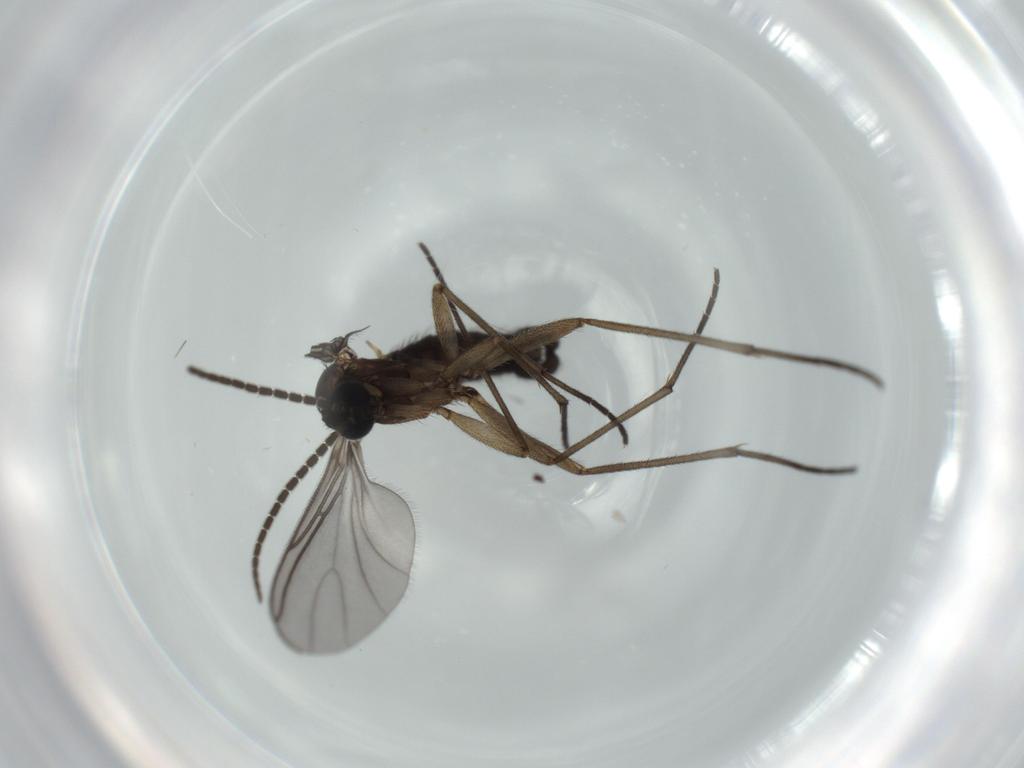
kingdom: Animalia
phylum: Arthropoda
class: Insecta
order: Diptera
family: Sciaridae
